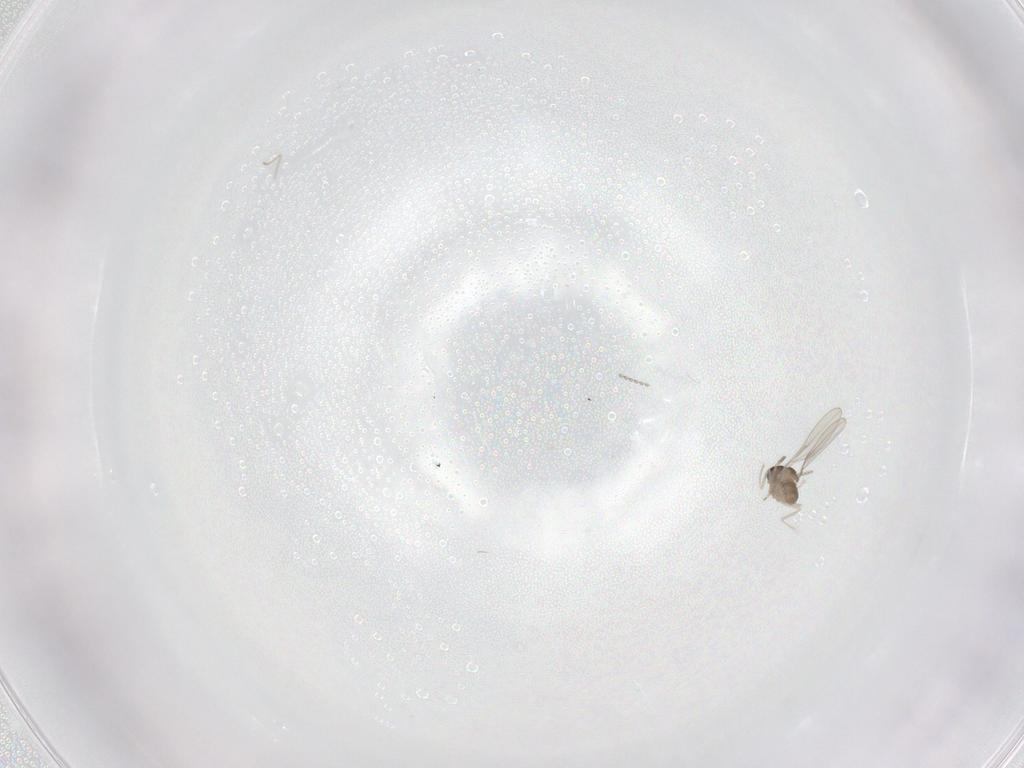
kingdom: Animalia
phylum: Arthropoda
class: Insecta
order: Diptera
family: Cecidomyiidae
